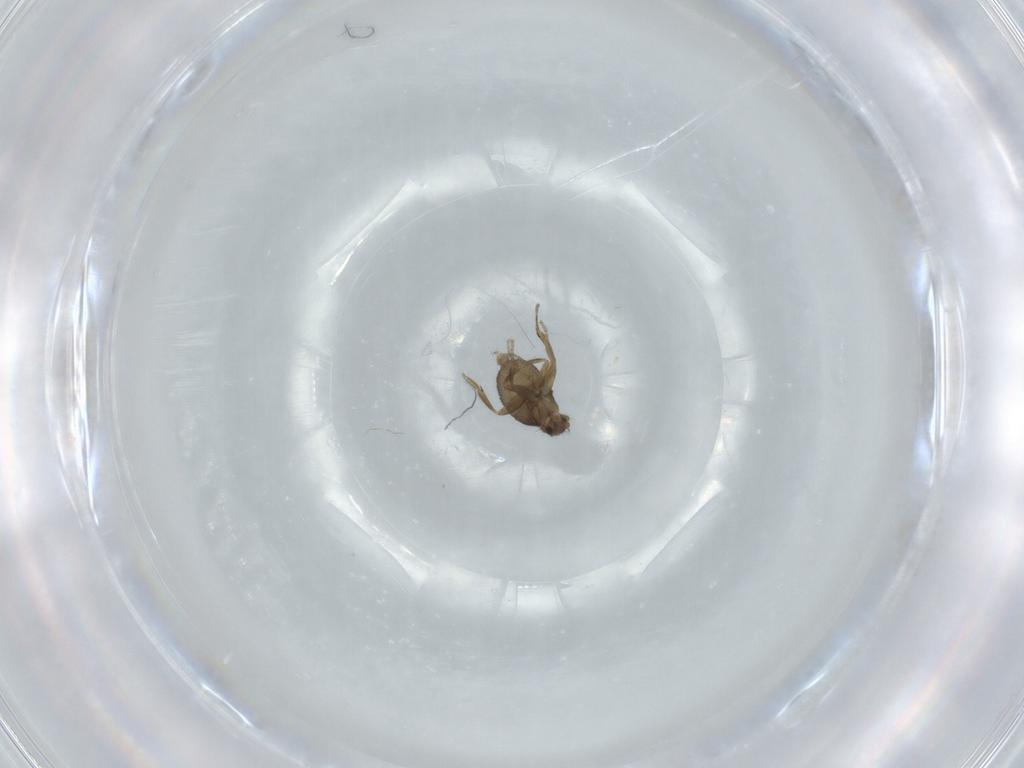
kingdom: Animalia
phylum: Arthropoda
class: Insecta
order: Diptera
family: Phoridae
